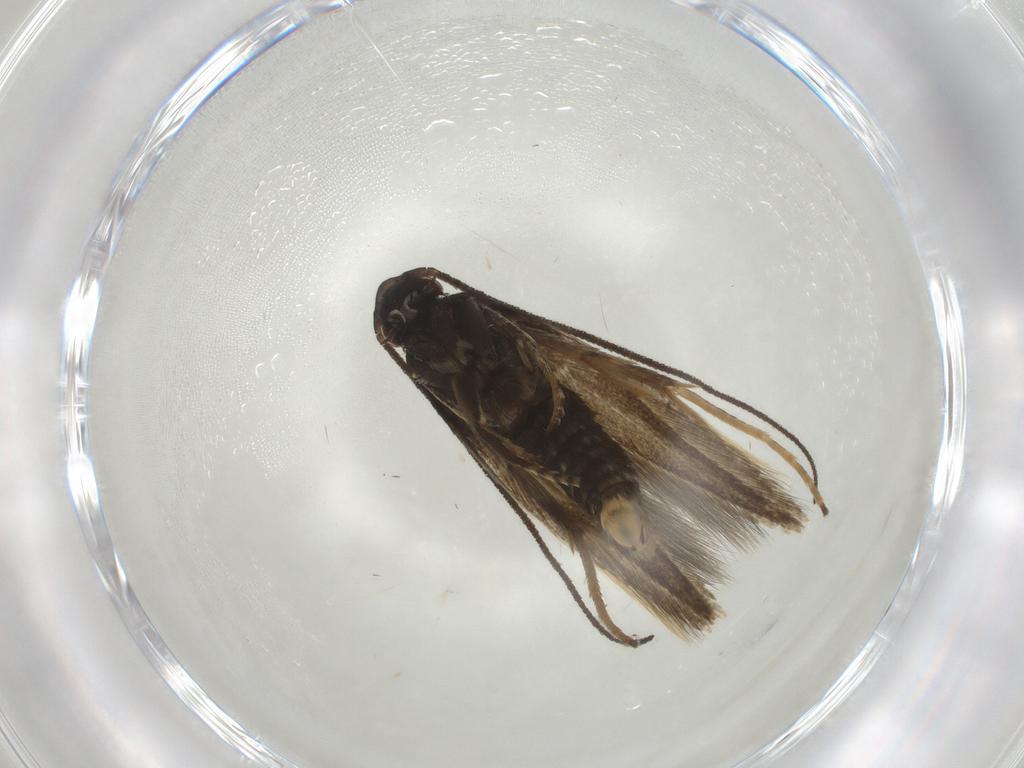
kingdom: Animalia
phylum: Arthropoda
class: Insecta
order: Lepidoptera
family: Tineidae
